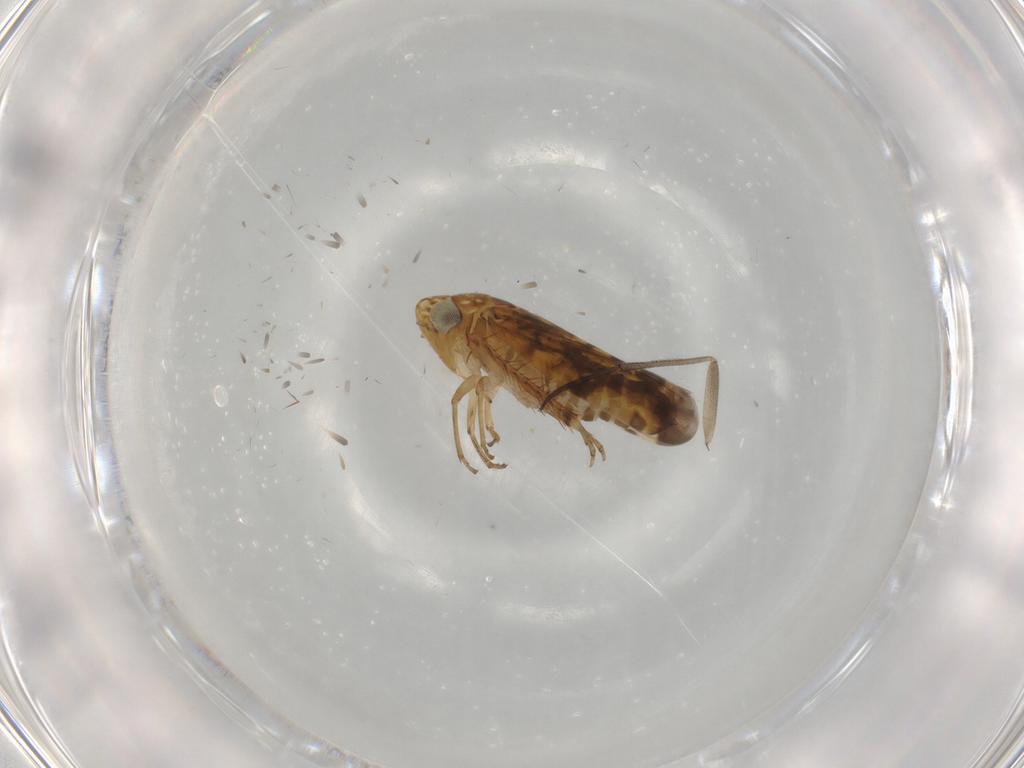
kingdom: Animalia
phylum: Arthropoda
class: Insecta
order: Hemiptera
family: Cicadellidae
